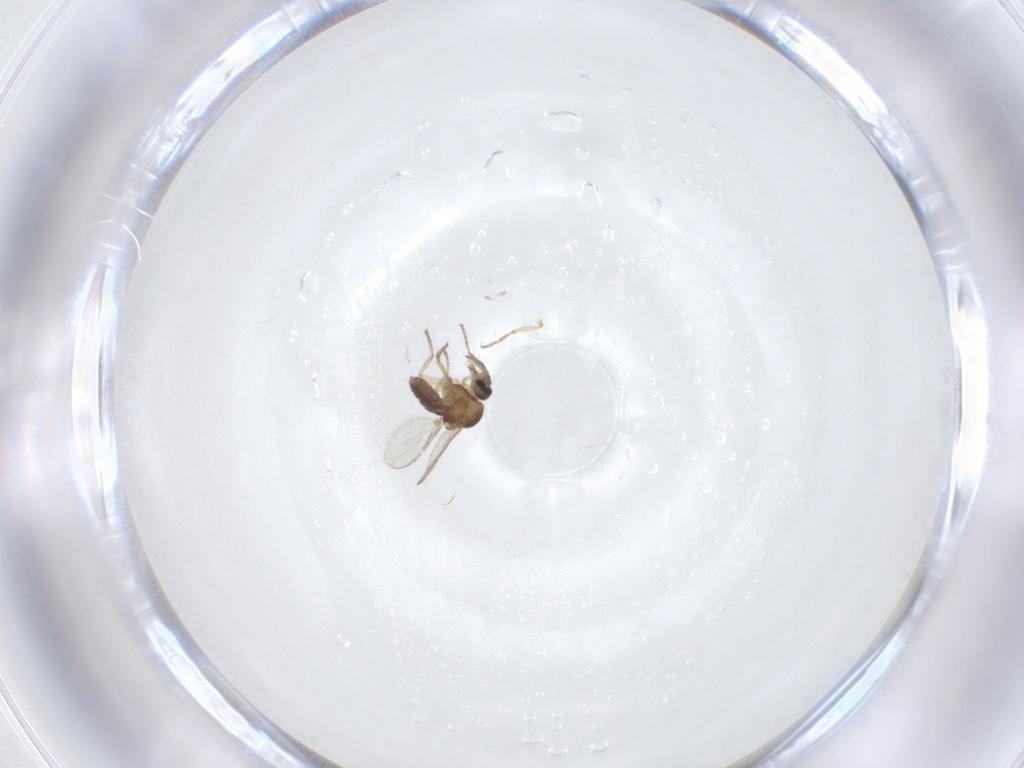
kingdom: Animalia
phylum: Arthropoda
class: Insecta
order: Diptera
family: Ceratopogonidae
